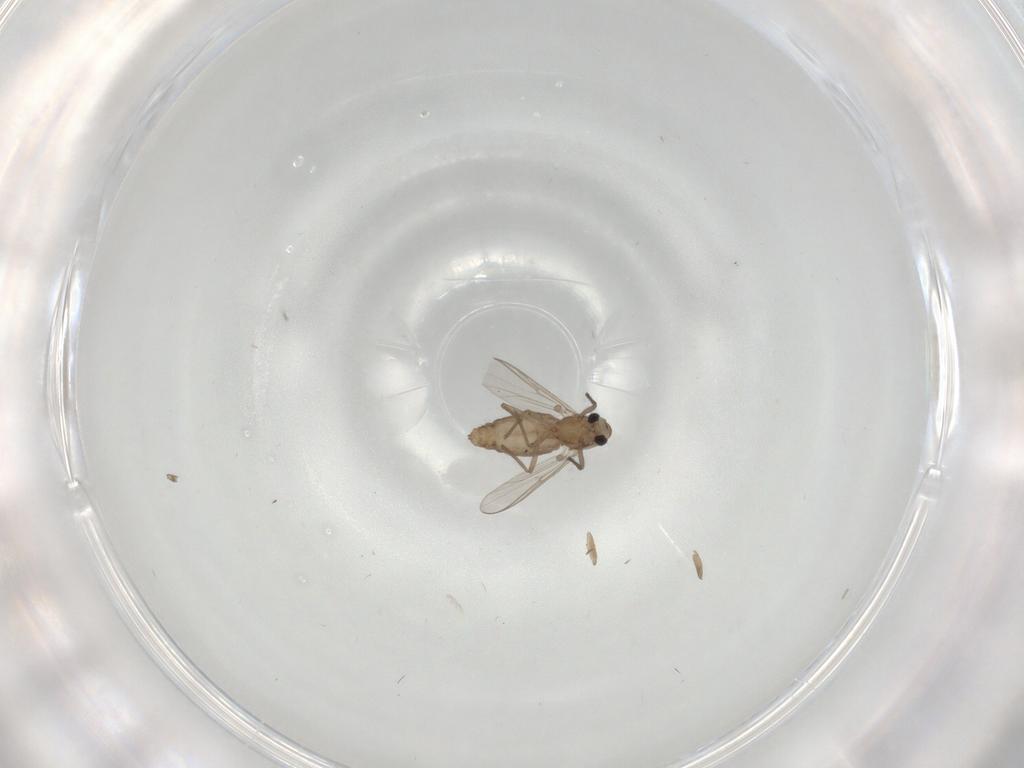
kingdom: Animalia
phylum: Arthropoda
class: Insecta
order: Diptera
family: Chironomidae
